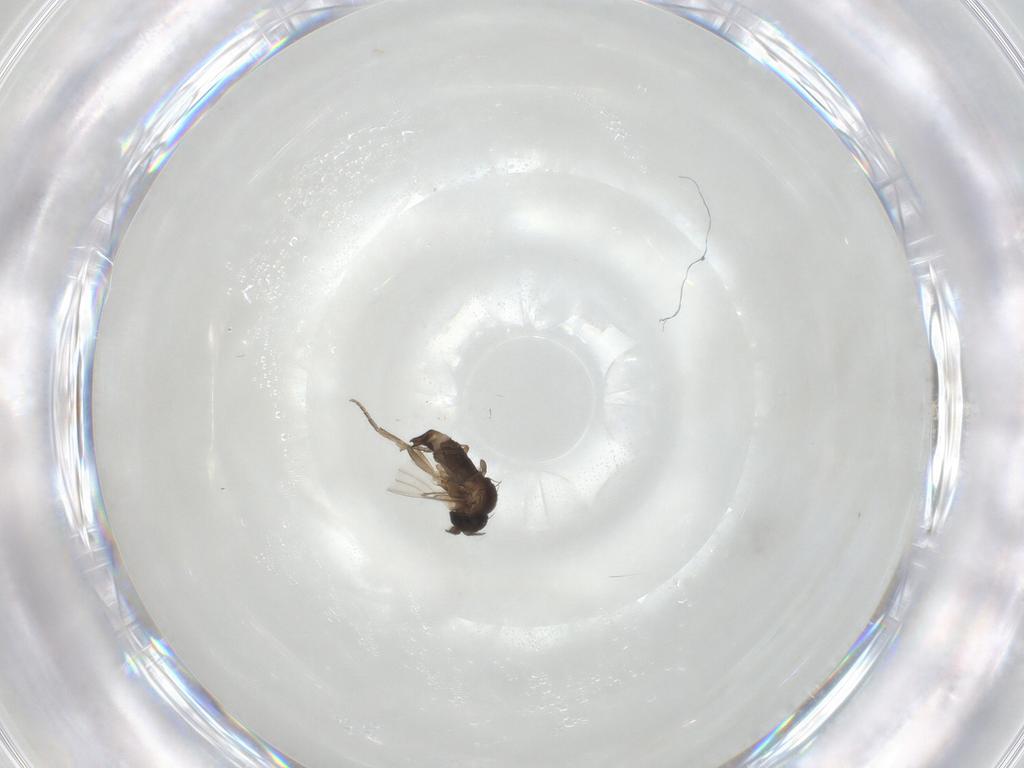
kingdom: Animalia
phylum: Arthropoda
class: Insecta
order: Diptera
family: Phoridae
